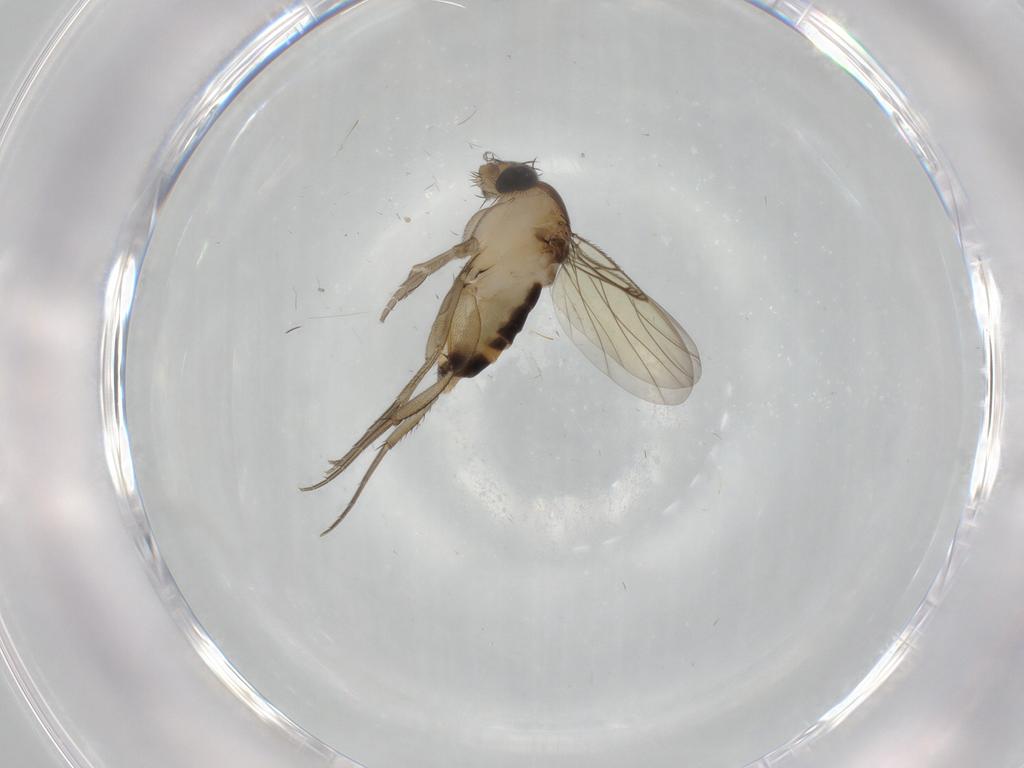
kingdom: Animalia
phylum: Arthropoda
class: Insecta
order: Diptera
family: Phoridae
